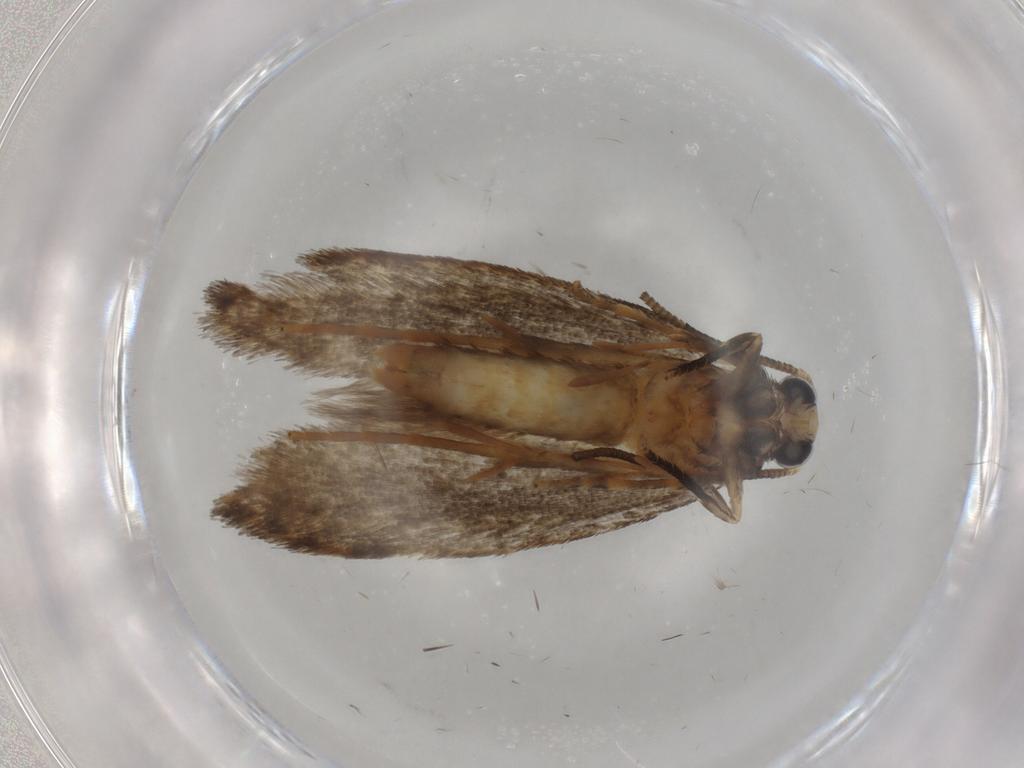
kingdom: Animalia
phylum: Arthropoda
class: Insecta
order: Lepidoptera
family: Tineidae
